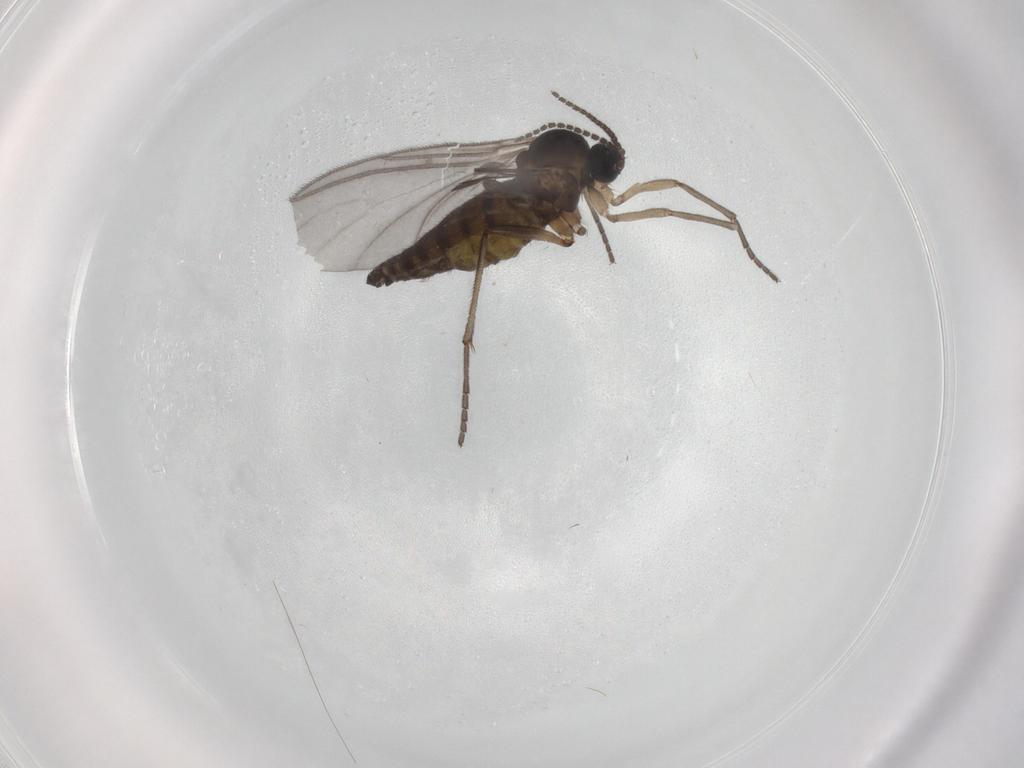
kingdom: Animalia
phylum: Arthropoda
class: Insecta
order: Diptera
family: Sciaridae
